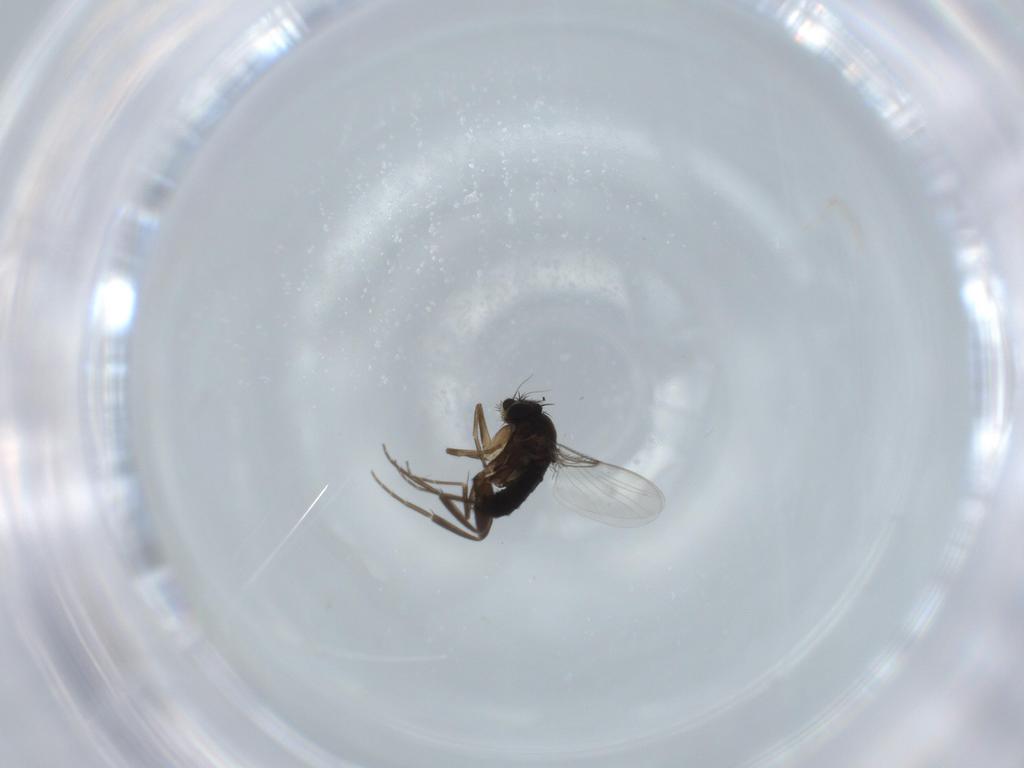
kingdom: Animalia
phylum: Arthropoda
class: Insecta
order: Diptera
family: Phoridae
